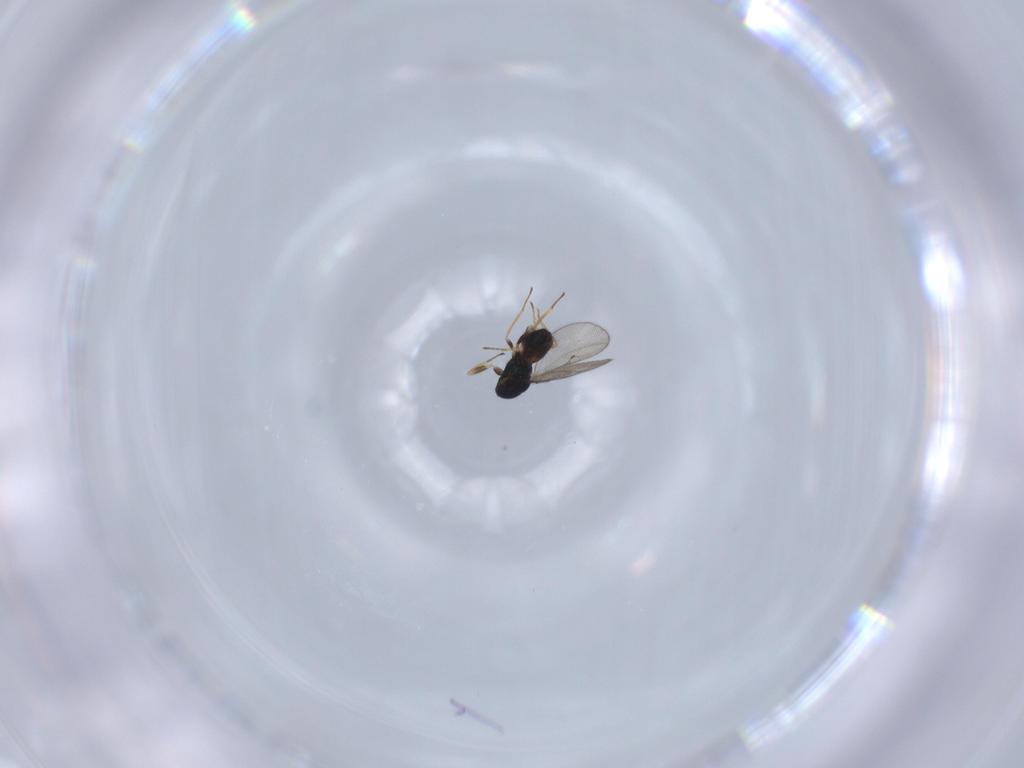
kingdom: Animalia
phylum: Arthropoda
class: Insecta
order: Hymenoptera
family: Eulophidae
